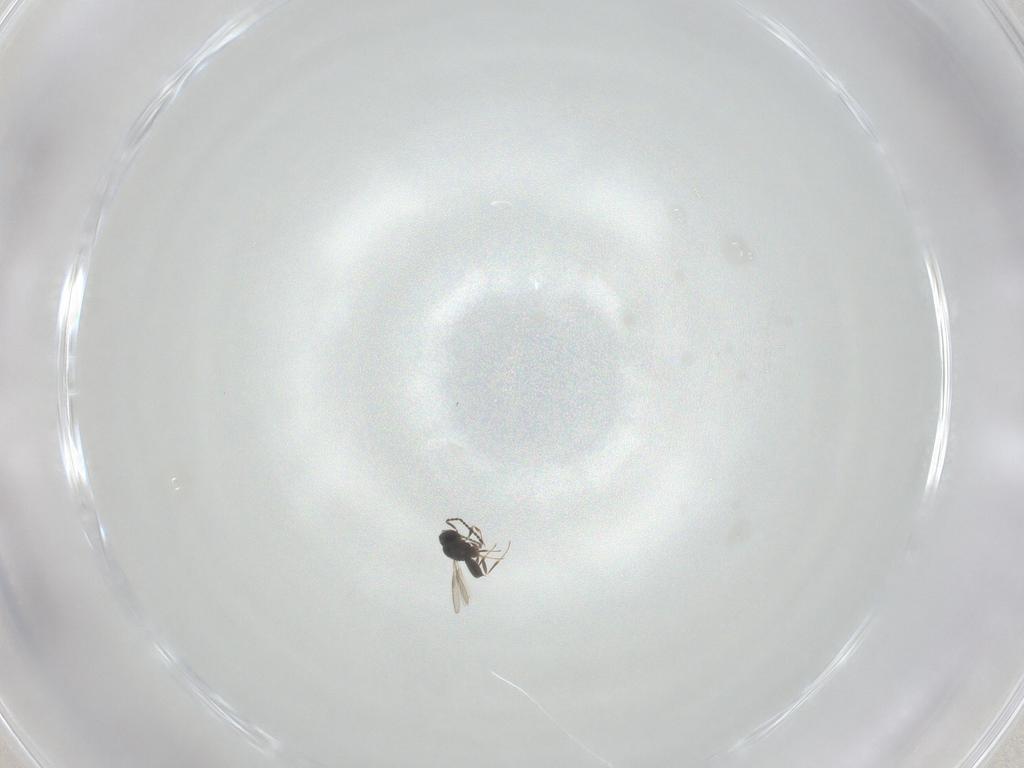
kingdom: Animalia
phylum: Arthropoda
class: Insecta
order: Hymenoptera
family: Scelionidae
